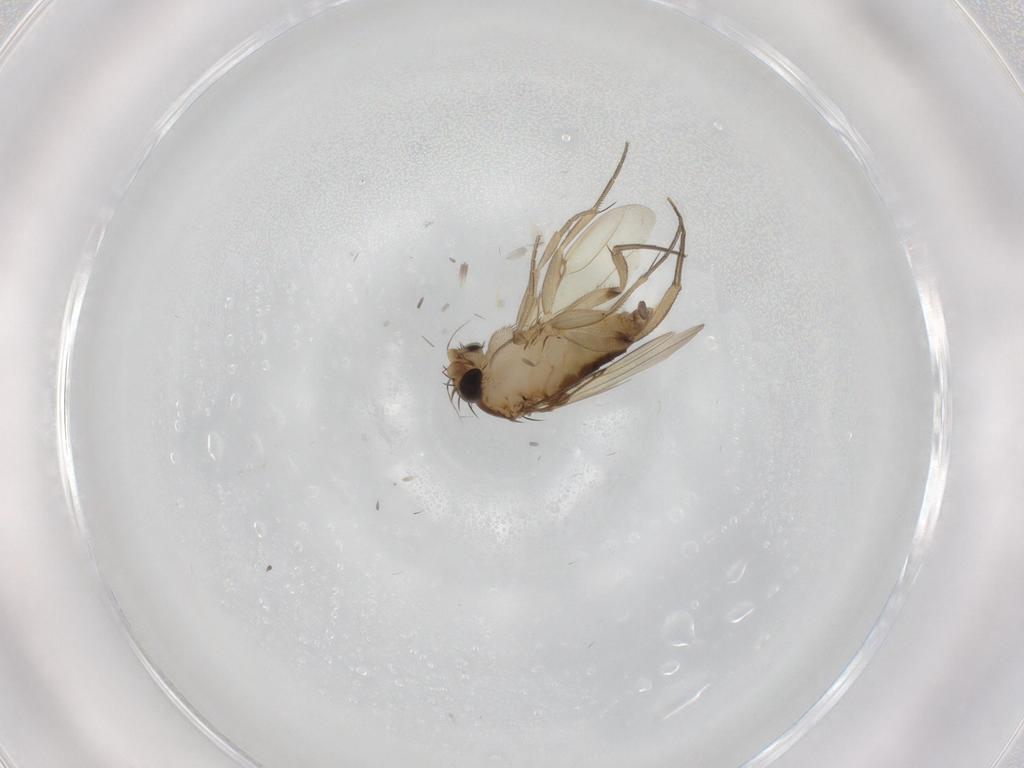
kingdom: Animalia
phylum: Arthropoda
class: Insecta
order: Diptera
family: Phoridae
